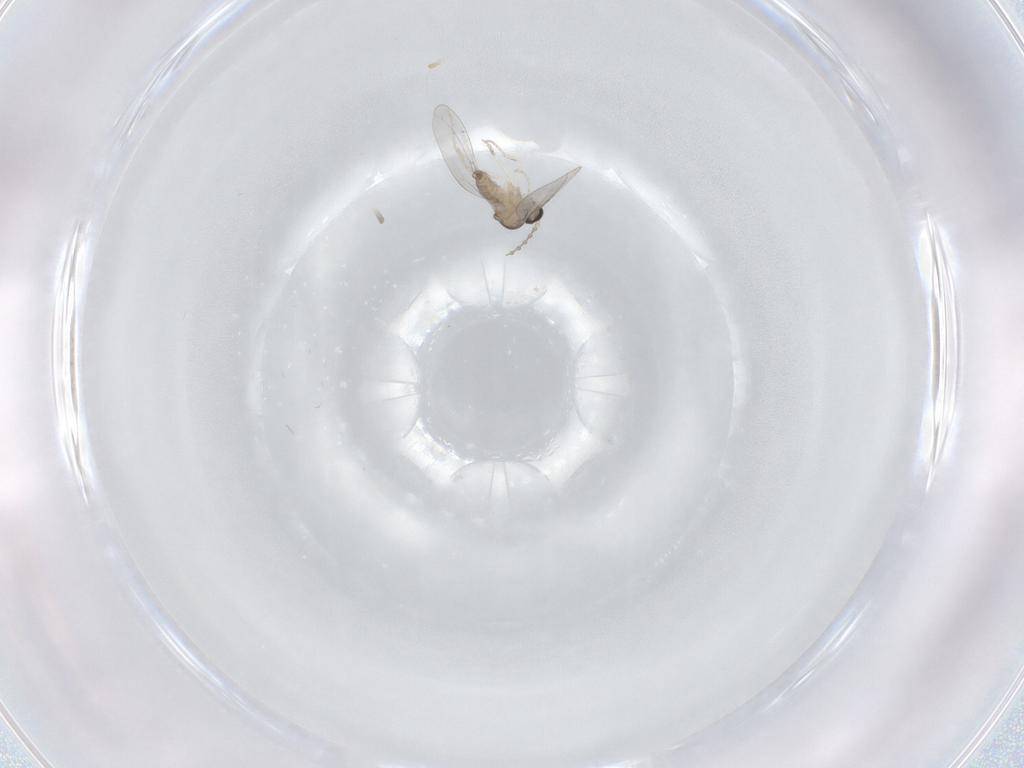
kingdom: Animalia
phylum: Arthropoda
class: Insecta
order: Diptera
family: Cecidomyiidae
